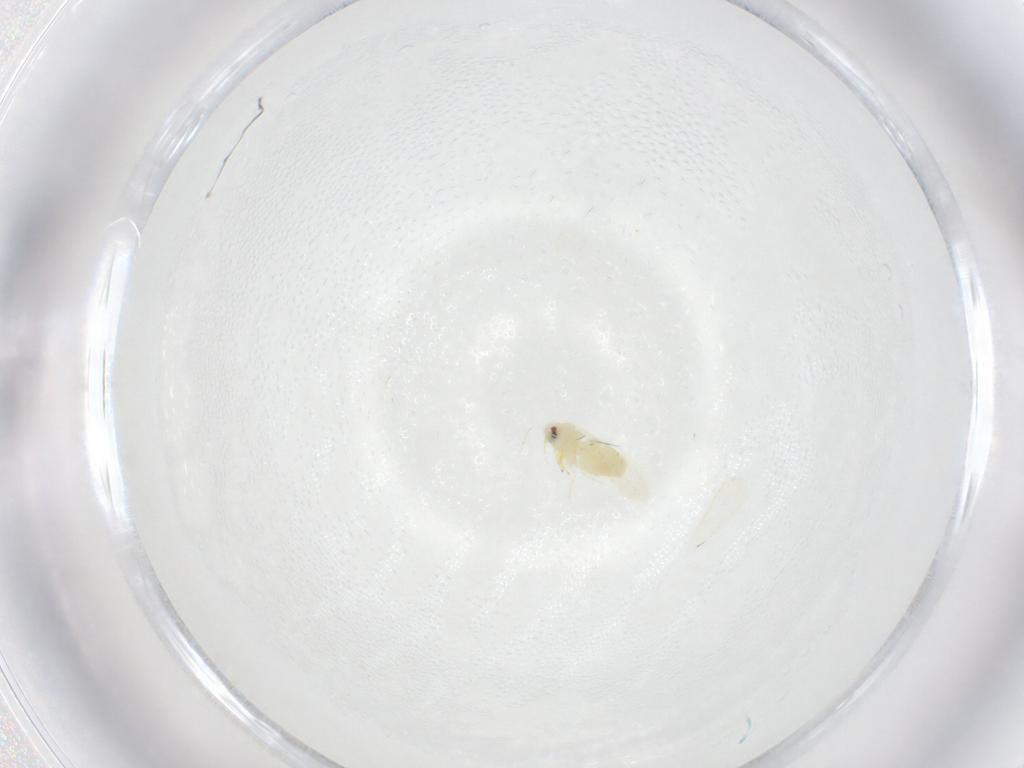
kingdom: Animalia
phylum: Arthropoda
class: Insecta
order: Hemiptera
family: Aleyrodidae
